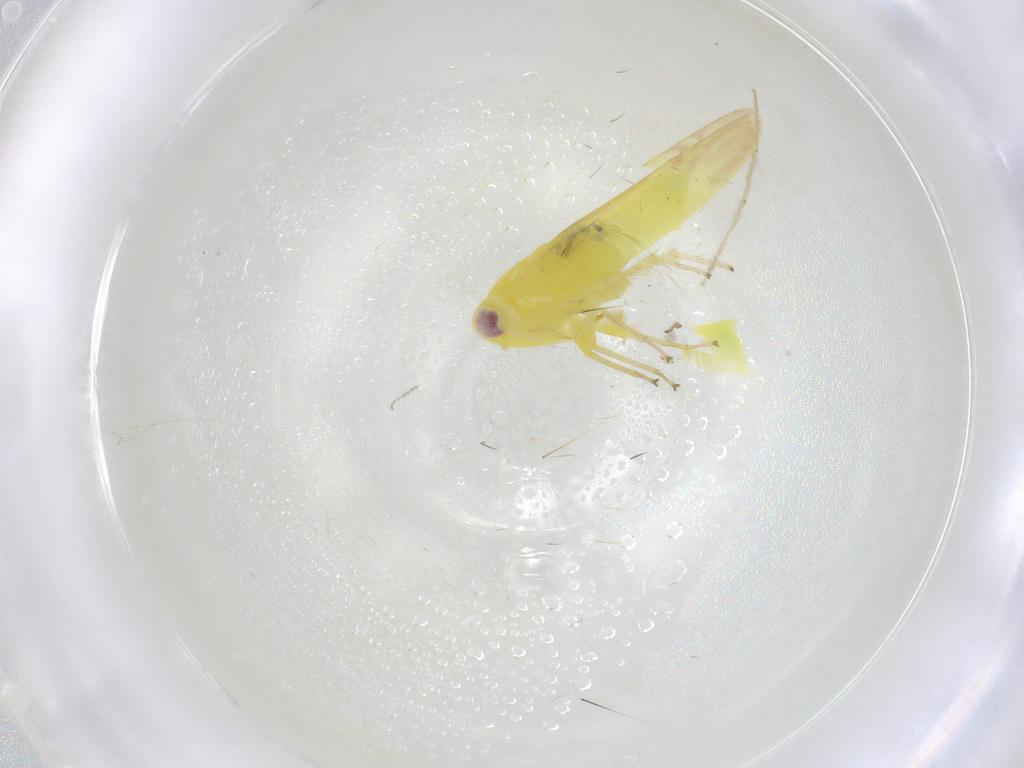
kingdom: Animalia
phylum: Arthropoda
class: Insecta
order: Hemiptera
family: Cicadellidae
